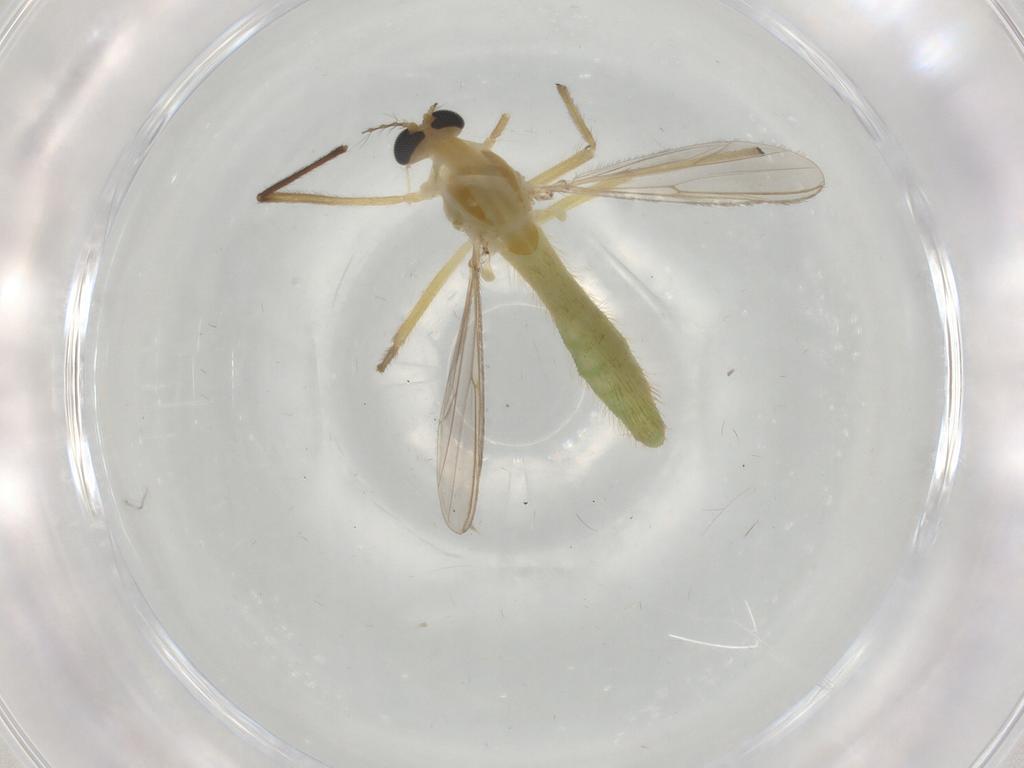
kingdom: Animalia
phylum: Arthropoda
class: Insecta
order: Diptera
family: Chironomidae
